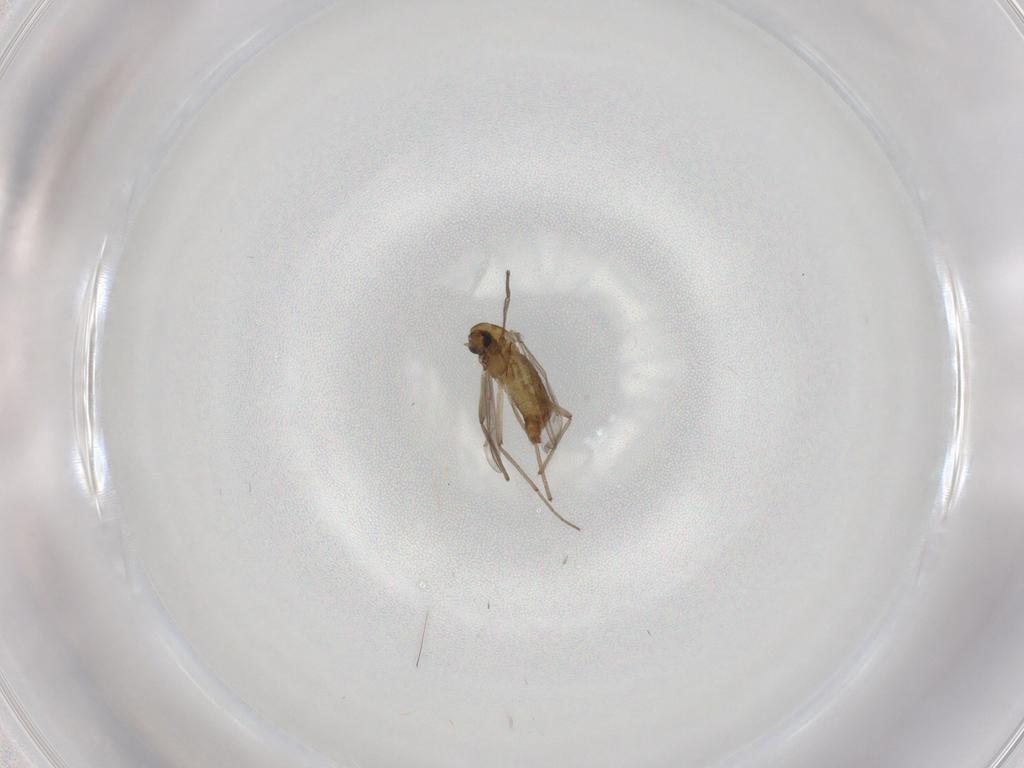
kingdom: Animalia
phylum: Arthropoda
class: Insecta
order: Diptera
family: Chironomidae
